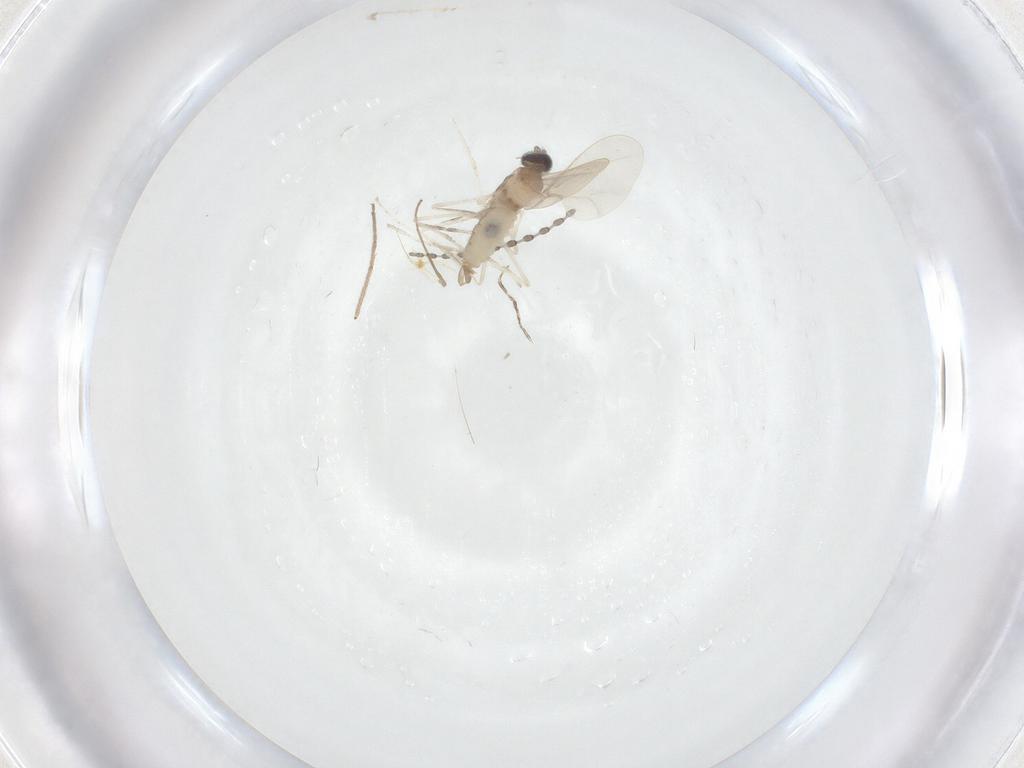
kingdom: Animalia
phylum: Arthropoda
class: Insecta
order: Diptera
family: Cecidomyiidae
